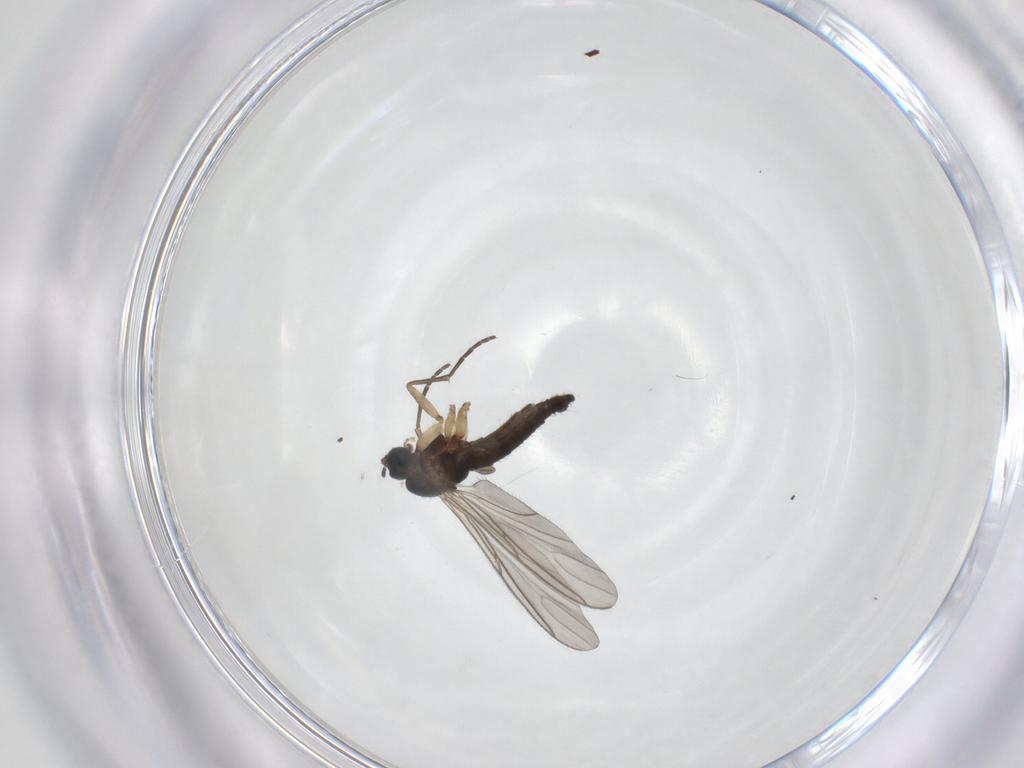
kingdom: Animalia
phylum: Arthropoda
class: Insecta
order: Diptera
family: Sciaridae
